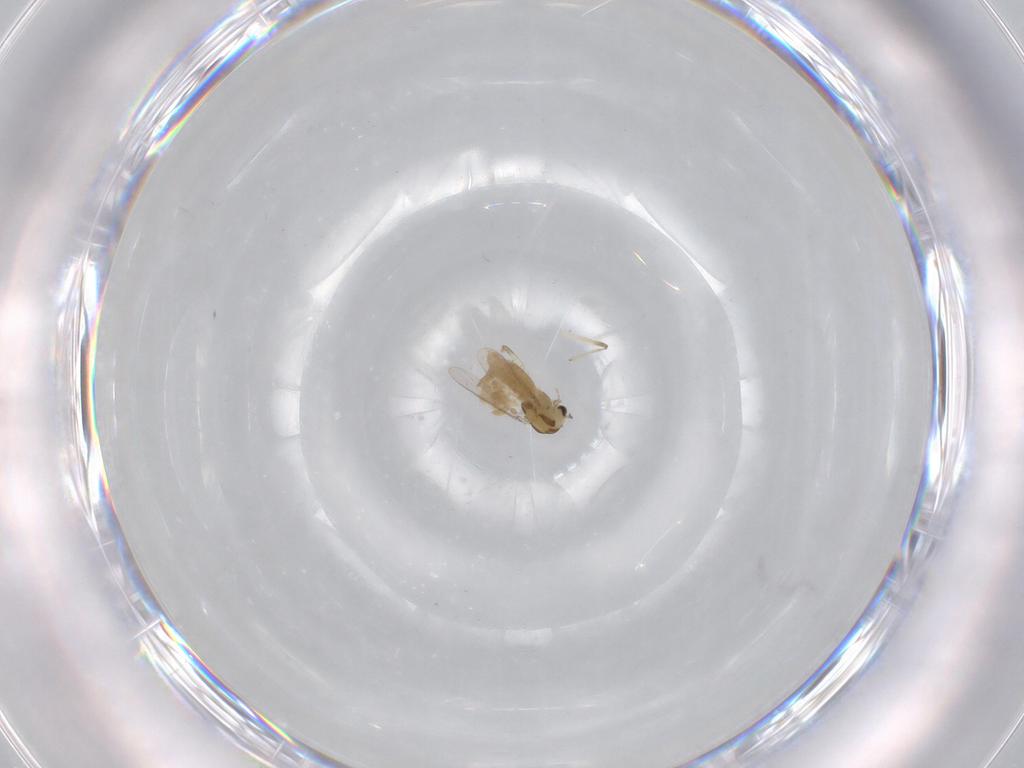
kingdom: Animalia
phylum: Arthropoda
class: Insecta
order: Diptera
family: Chironomidae
